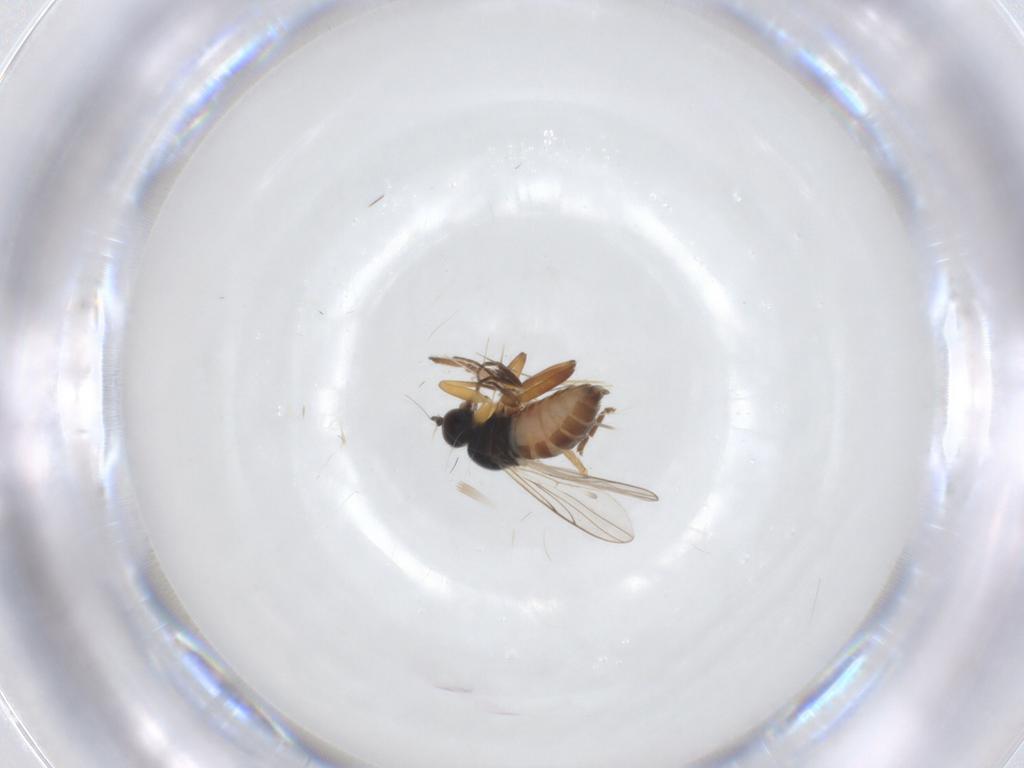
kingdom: Animalia
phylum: Arthropoda
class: Insecta
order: Diptera
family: Hybotidae
